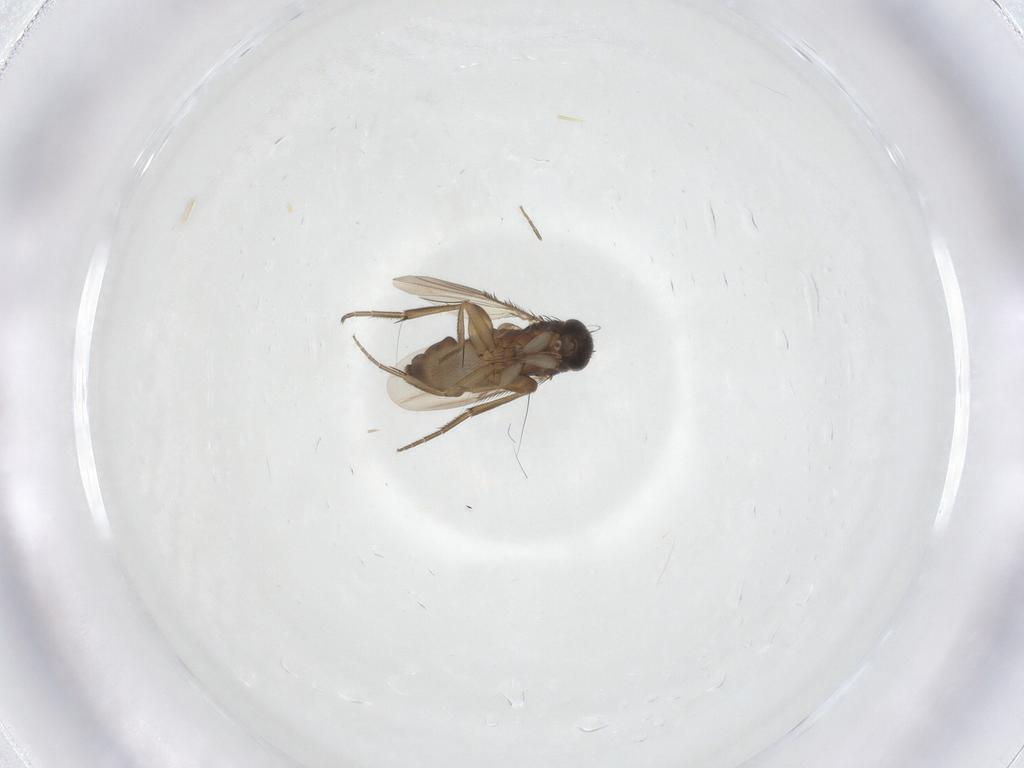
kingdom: Animalia
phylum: Arthropoda
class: Insecta
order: Diptera
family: Phoridae
